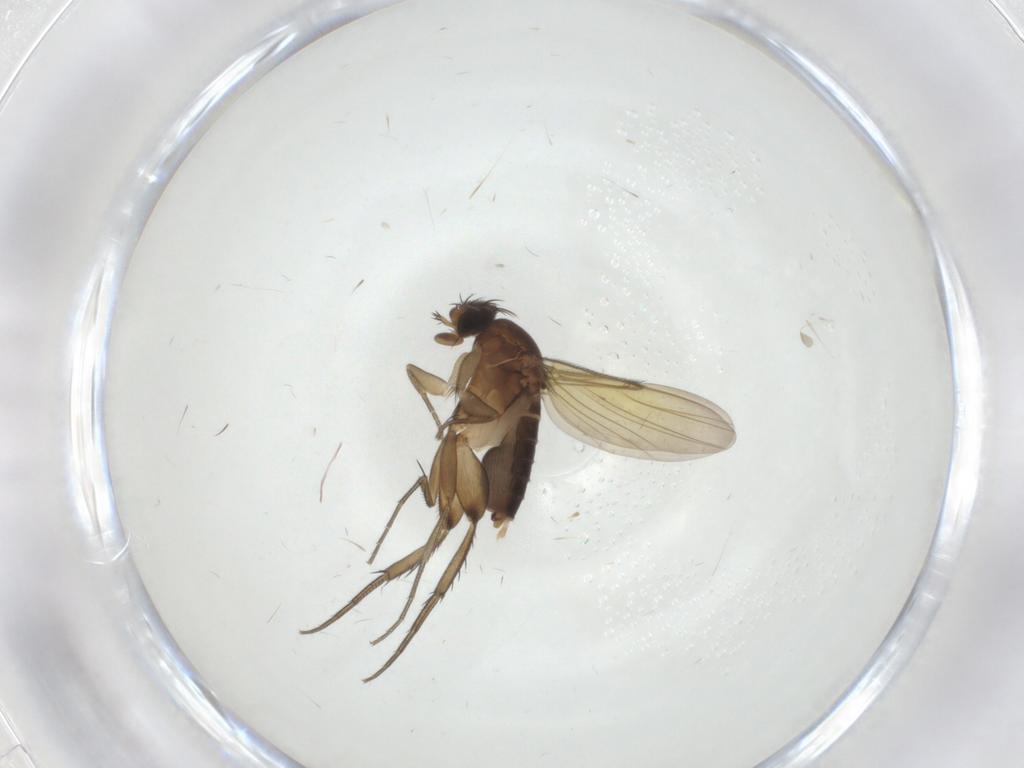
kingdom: Animalia
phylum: Arthropoda
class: Insecta
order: Diptera
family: Phoridae
